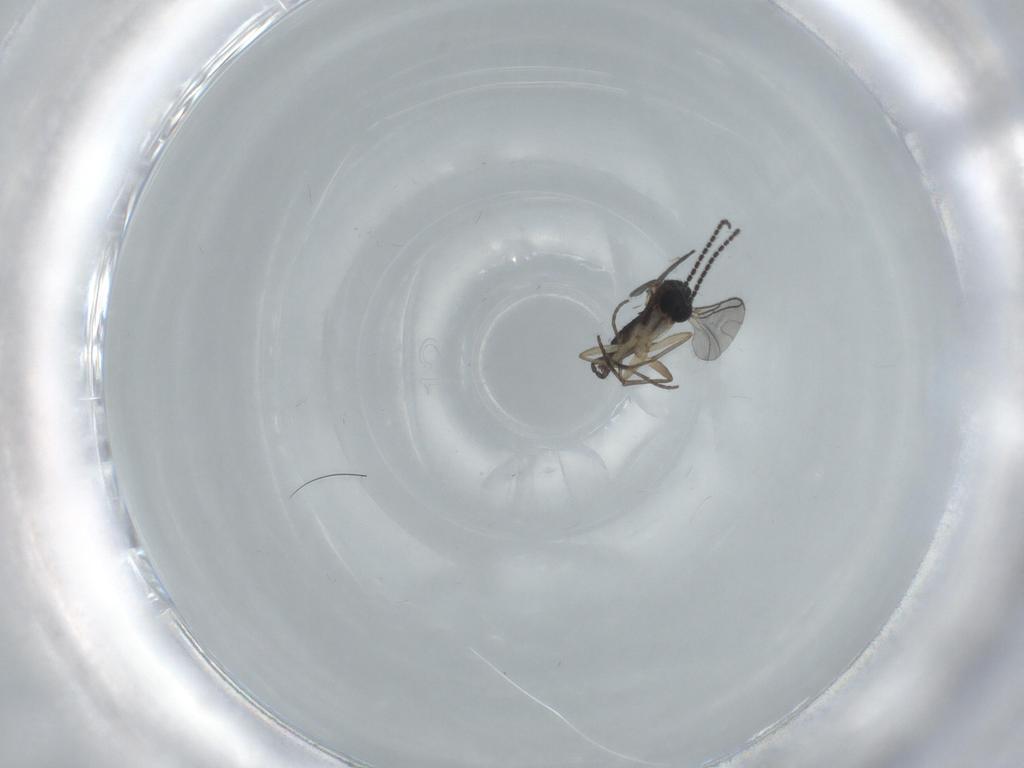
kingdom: Animalia
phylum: Arthropoda
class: Insecta
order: Diptera
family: Sciaridae
